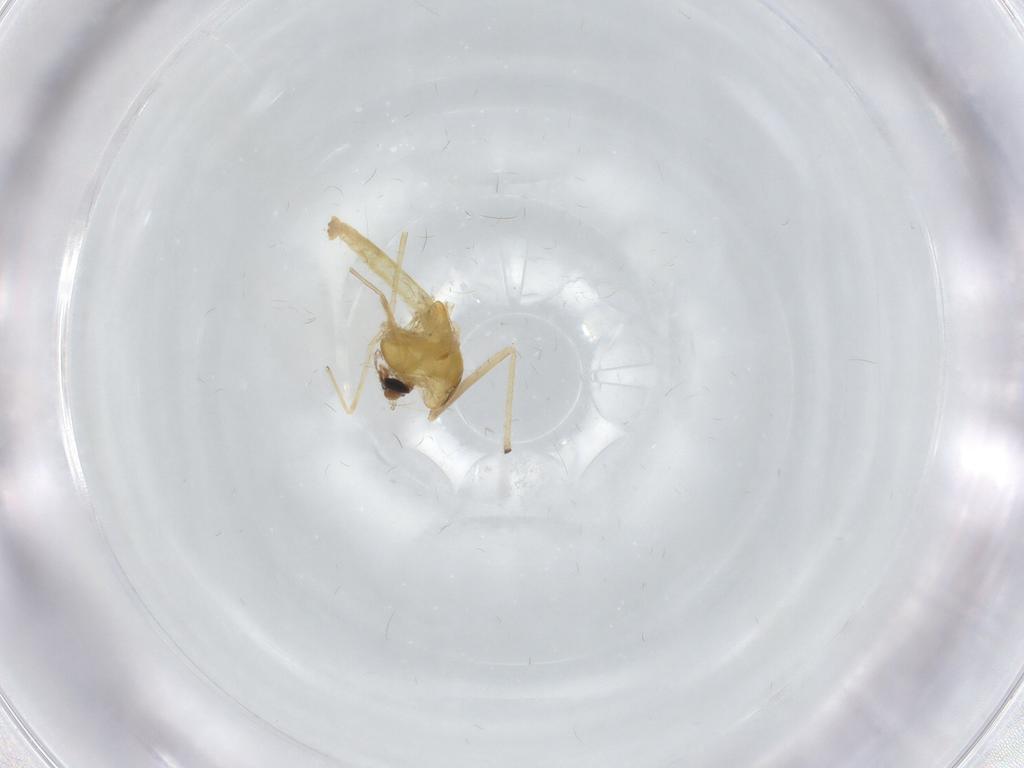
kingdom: Animalia
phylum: Arthropoda
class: Insecta
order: Diptera
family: Chironomidae
